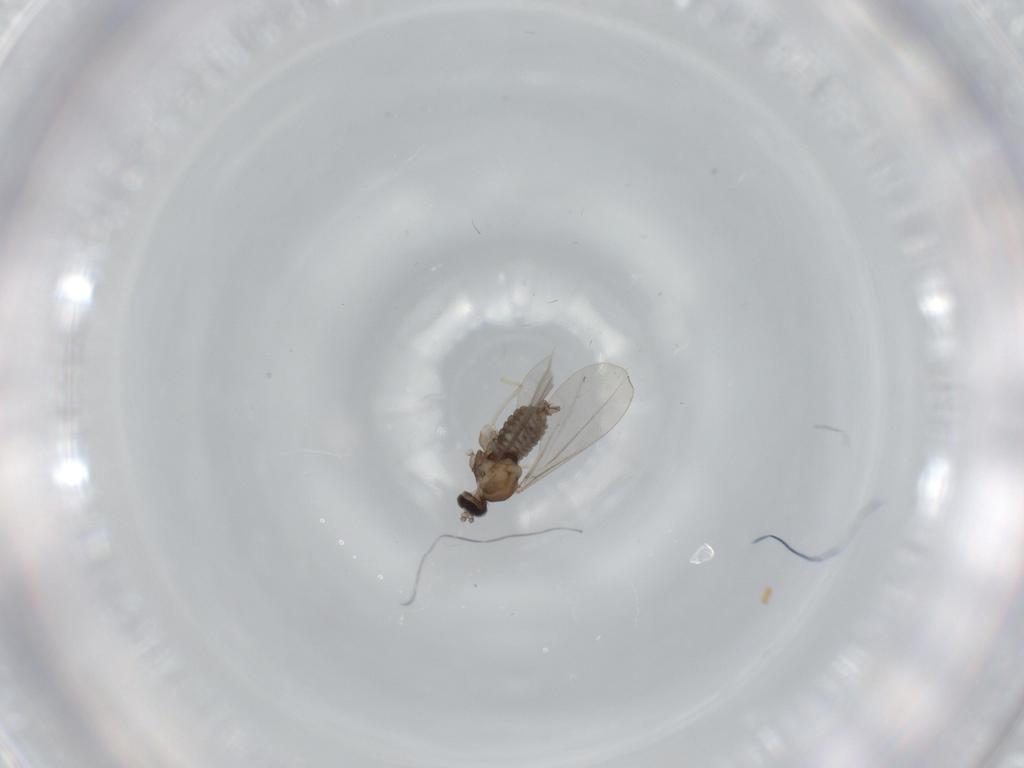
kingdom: Animalia
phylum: Arthropoda
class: Insecta
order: Diptera
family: Cecidomyiidae
